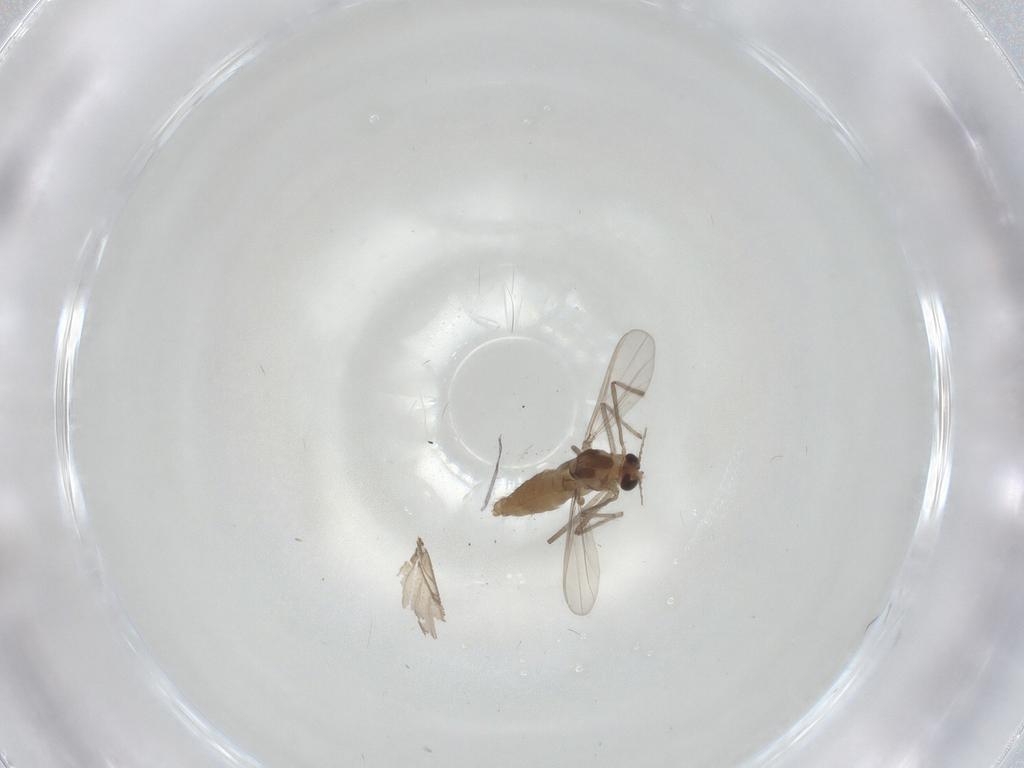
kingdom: Animalia
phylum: Arthropoda
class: Insecta
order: Diptera
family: Chironomidae
